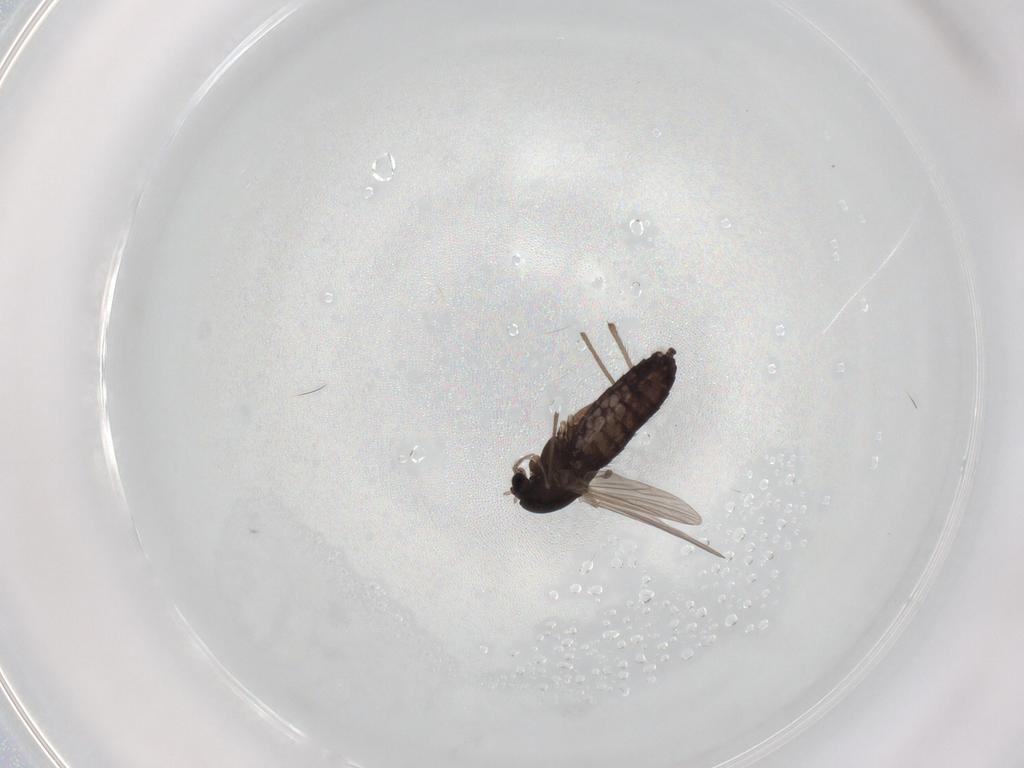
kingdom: Animalia
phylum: Arthropoda
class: Insecta
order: Diptera
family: Chironomidae
